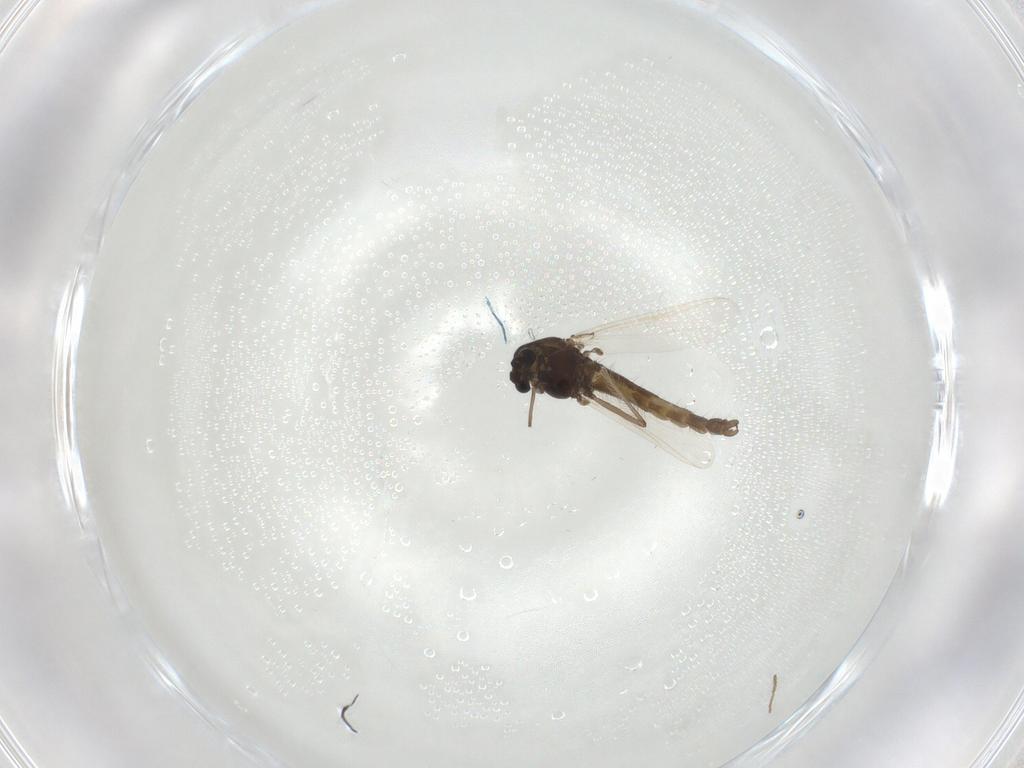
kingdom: Animalia
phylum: Arthropoda
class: Insecta
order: Diptera
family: Chironomidae
